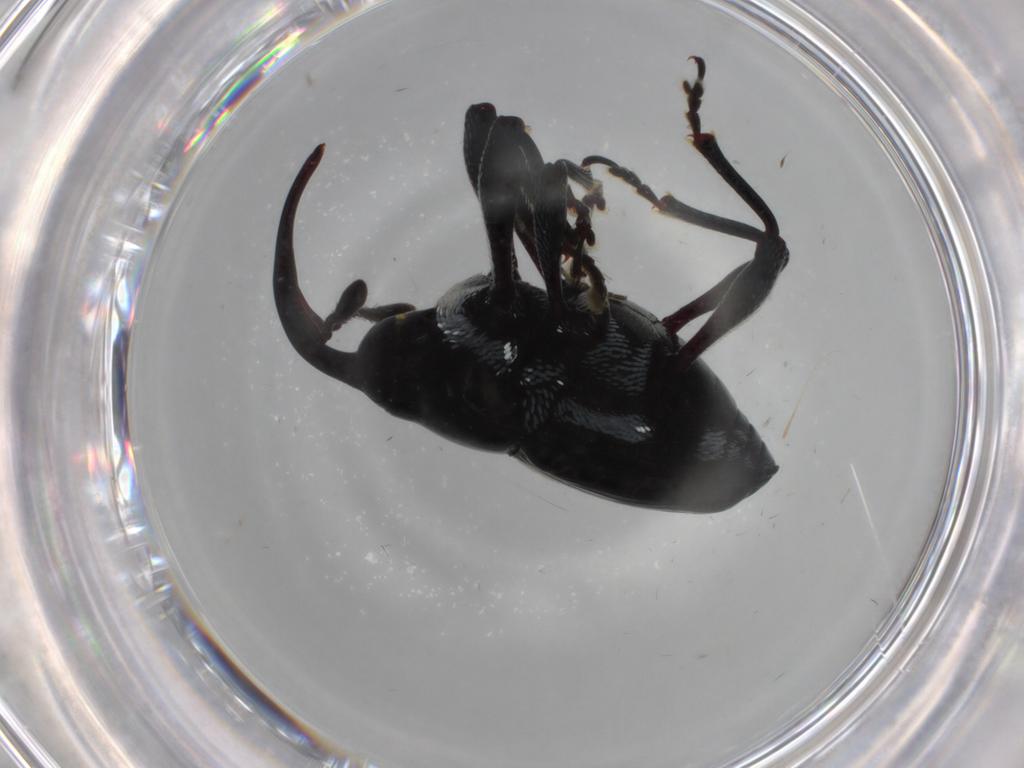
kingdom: Animalia
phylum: Arthropoda
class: Insecta
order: Coleoptera
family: Curculionidae
